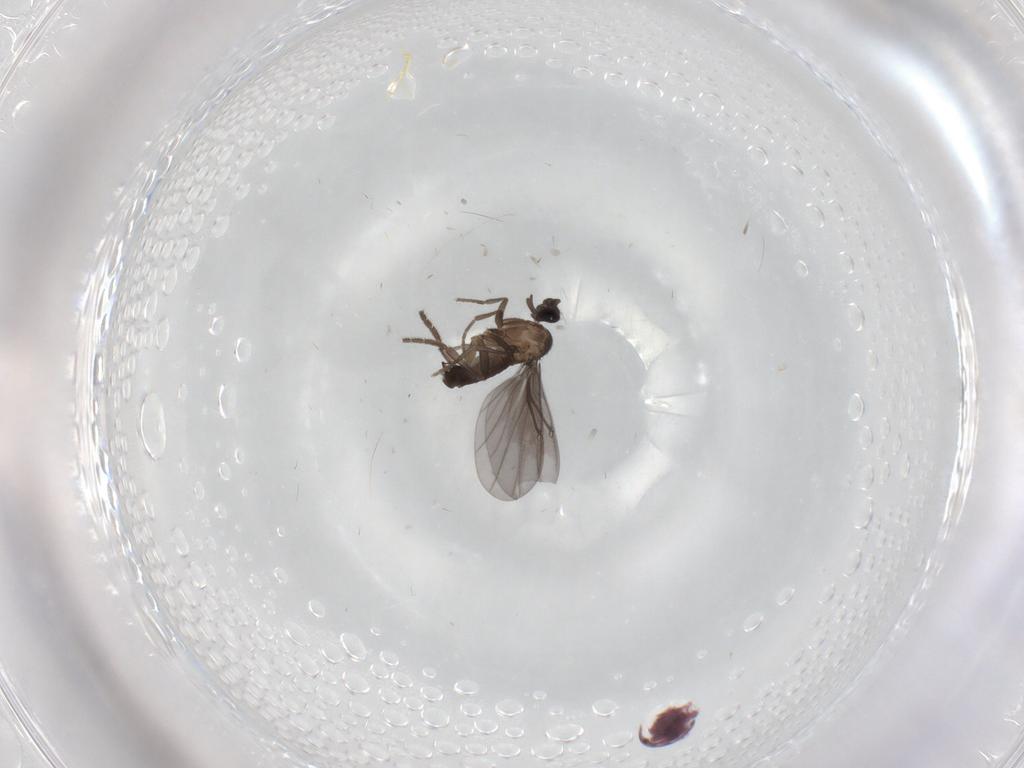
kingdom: Animalia
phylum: Arthropoda
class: Insecta
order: Diptera
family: Phoridae
